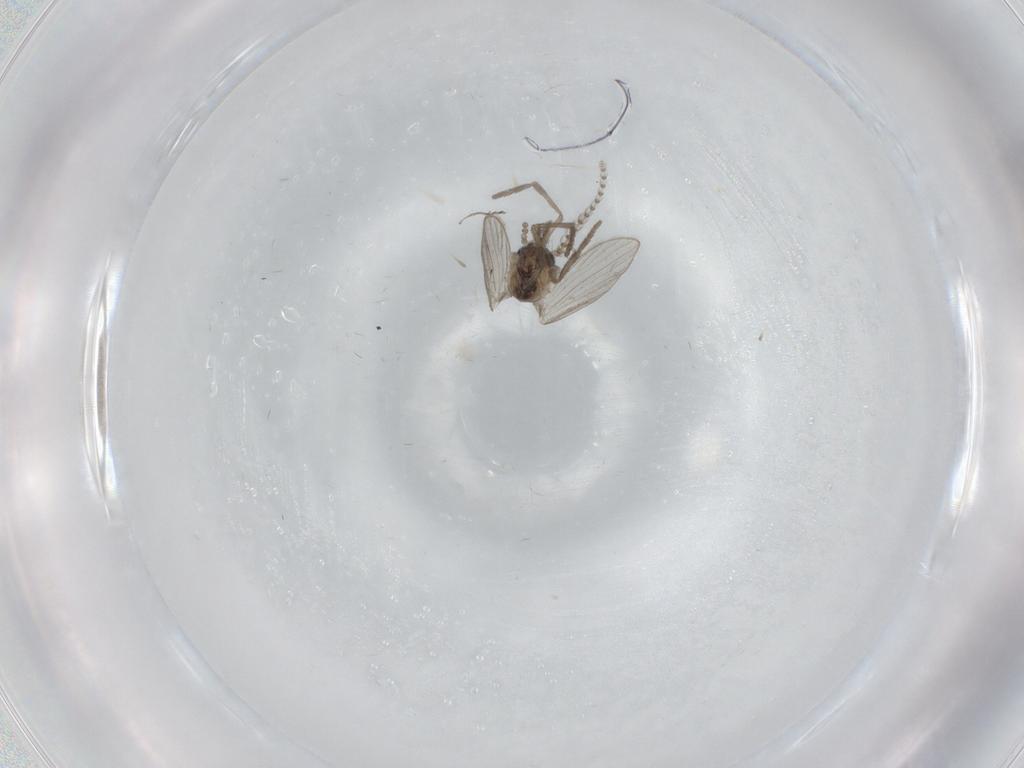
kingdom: Animalia
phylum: Arthropoda
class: Insecta
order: Diptera
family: Psychodidae
